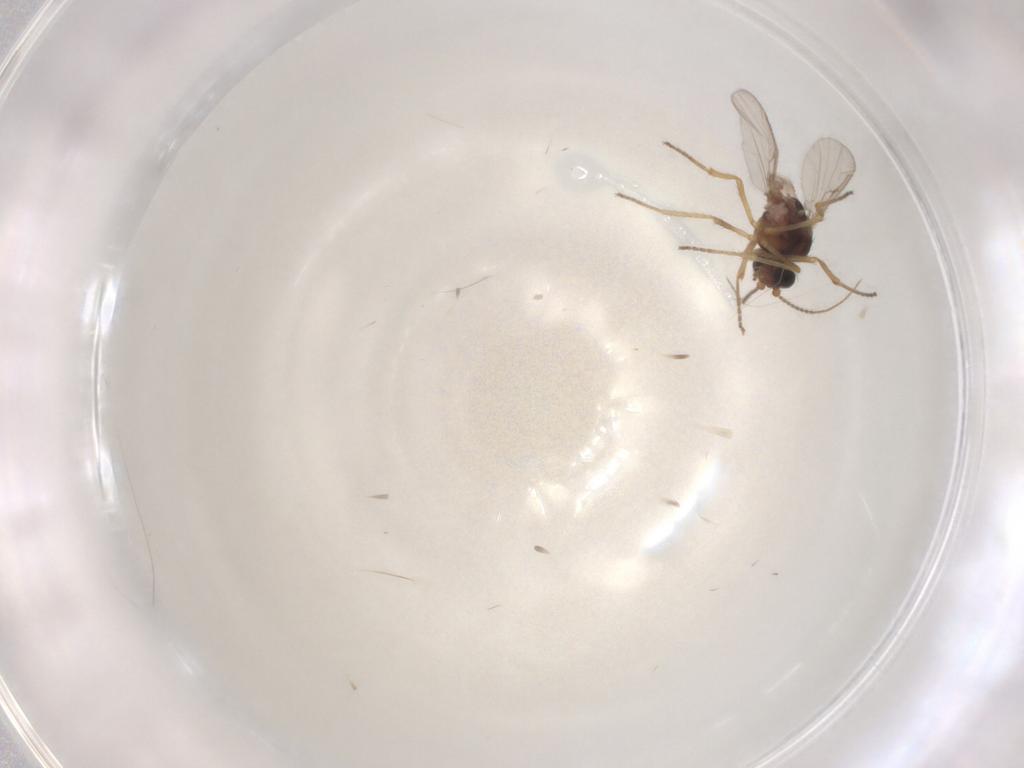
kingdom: Animalia
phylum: Arthropoda
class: Insecta
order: Diptera
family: Ceratopogonidae
